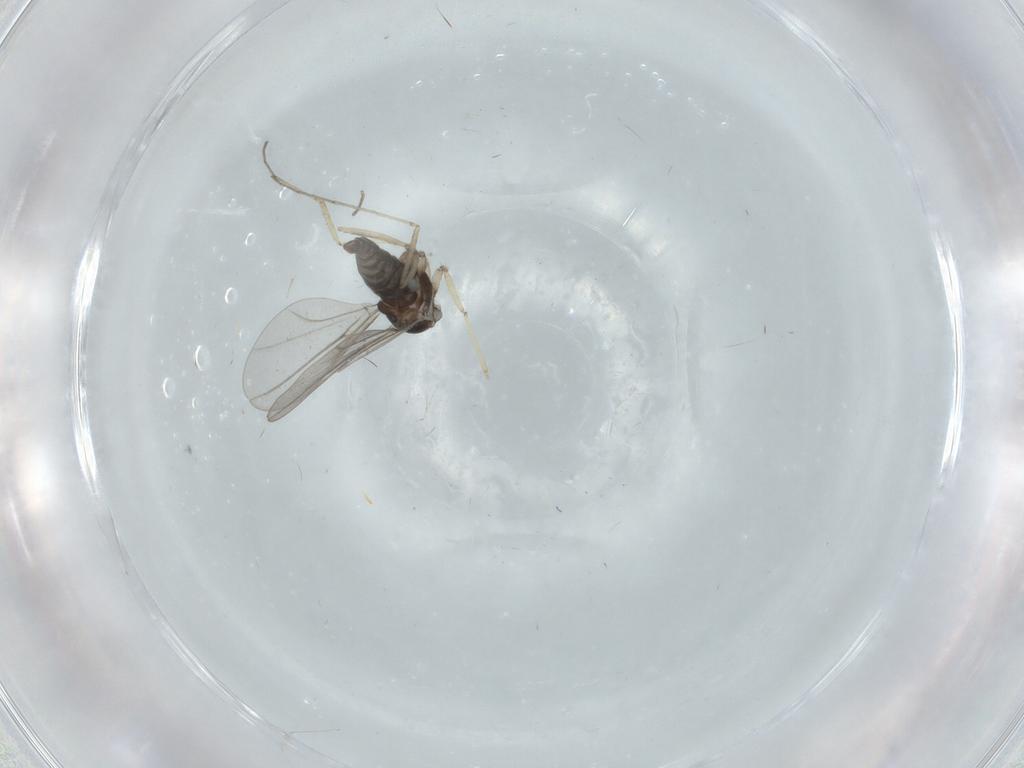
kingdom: Animalia
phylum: Arthropoda
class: Insecta
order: Diptera
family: Cecidomyiidae
